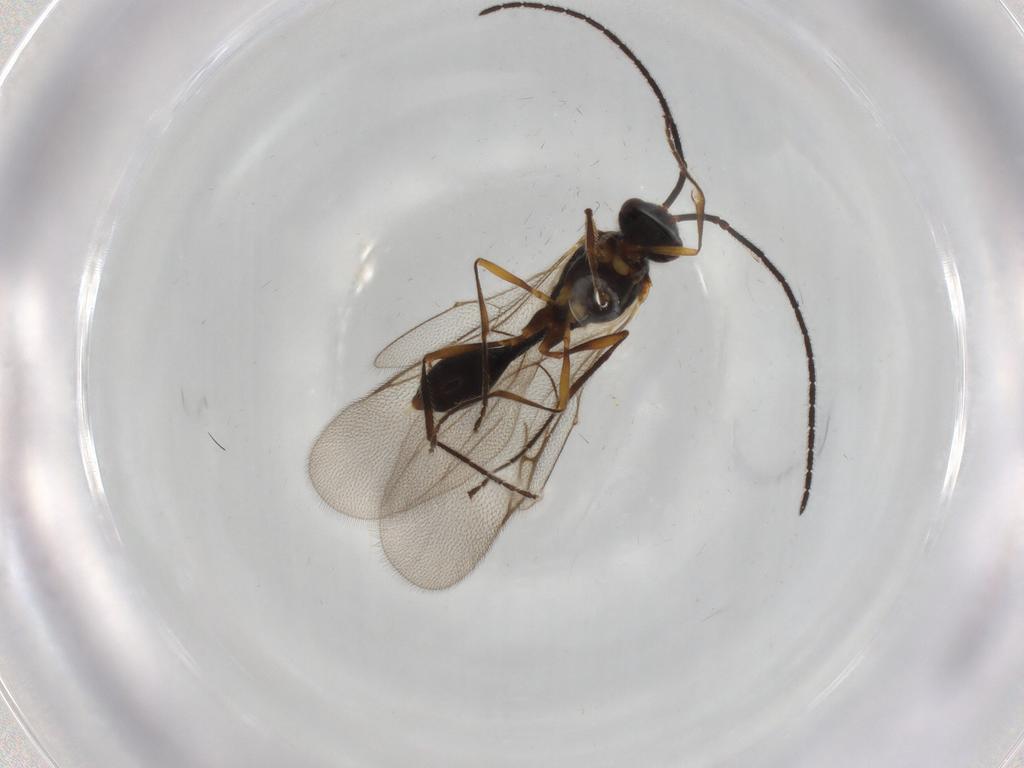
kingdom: Animalia
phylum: Arthropoda
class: Insecta
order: Hymenoptera
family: Diapriidae
